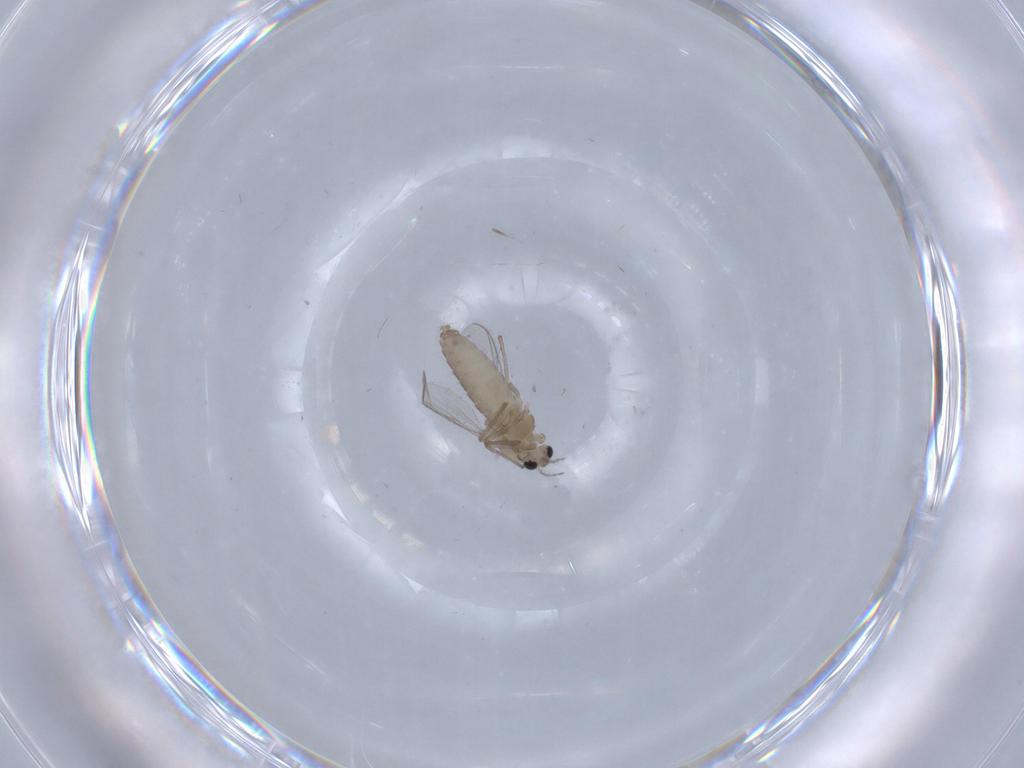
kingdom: Animalia
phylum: Arthropoda
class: Insecta
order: Diptera
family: Chironomidae
